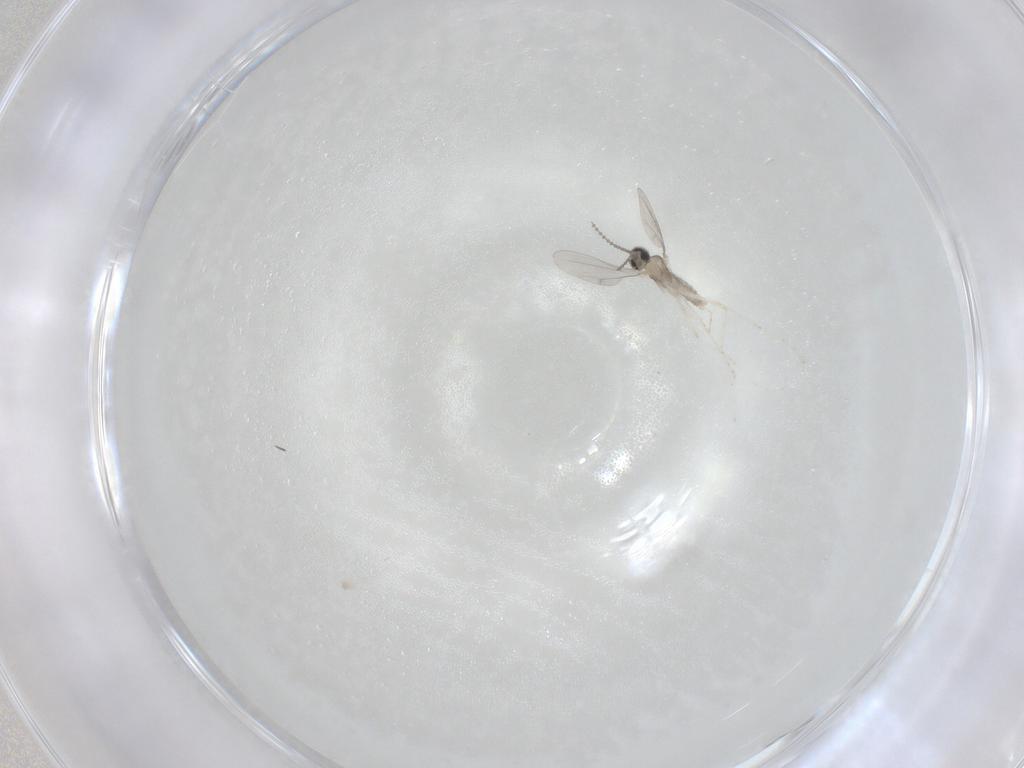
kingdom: Animalia
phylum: Arthropoda
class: Insecta
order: Diptera
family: Cecidomyiidae
